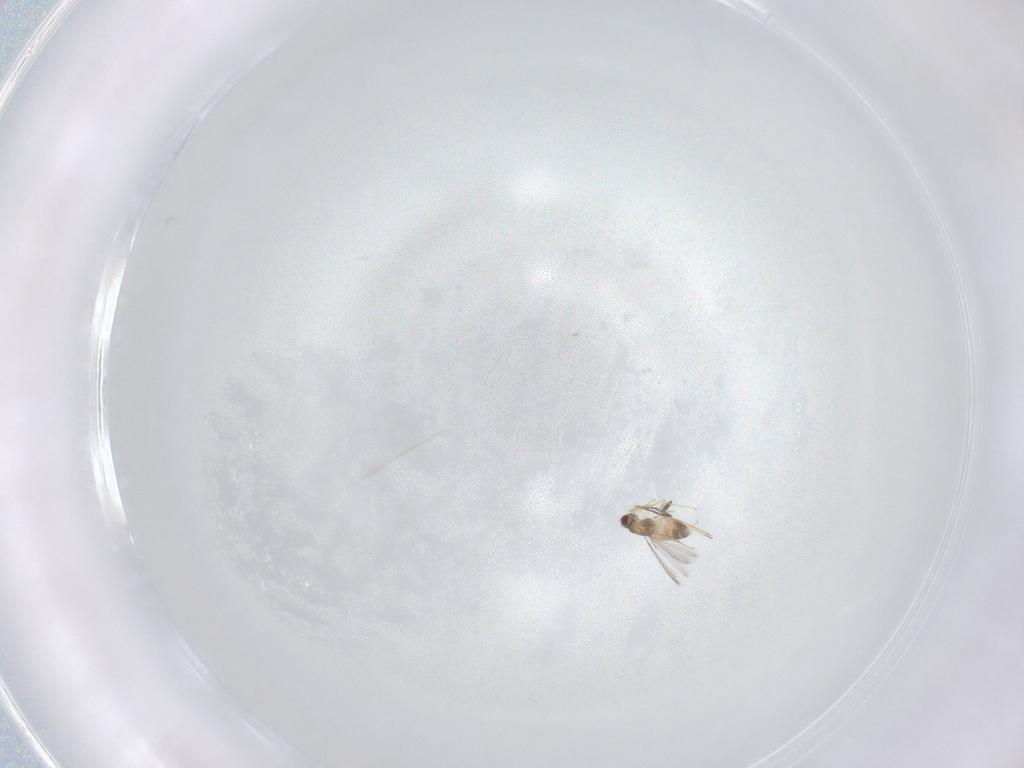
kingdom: Animalia
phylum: Arthropoda
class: Insecta
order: Hymenoptera
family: Mymaridae
